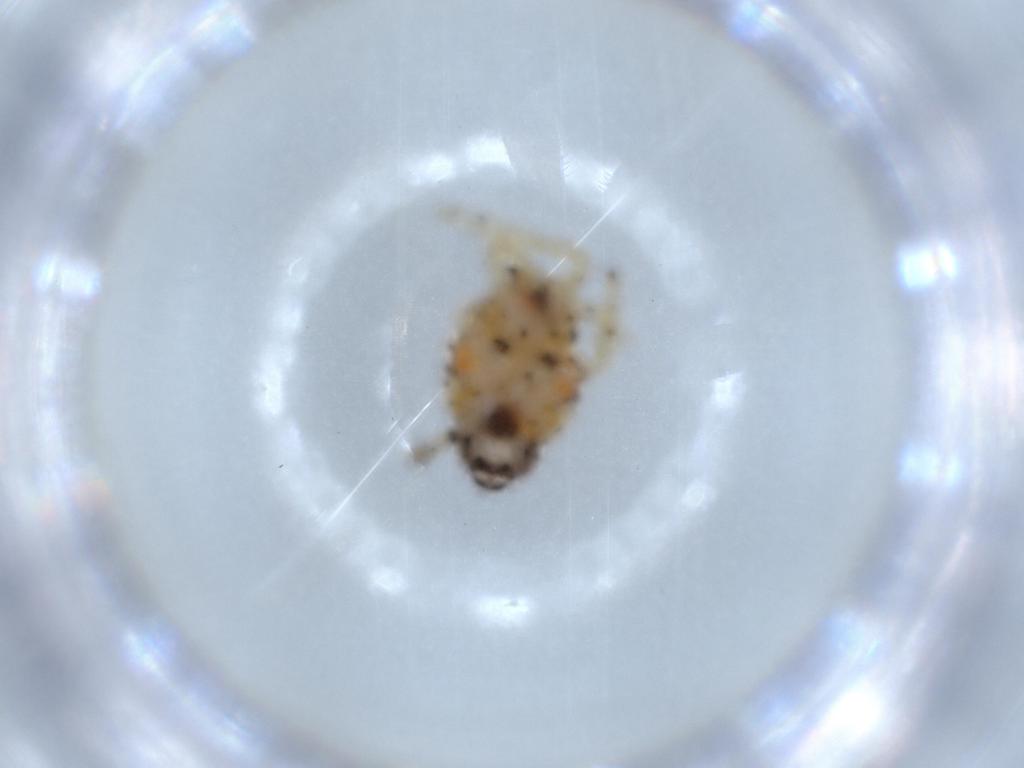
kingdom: Animalia
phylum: Arthropoda
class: Insecta
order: Hemiptera
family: Issidae
